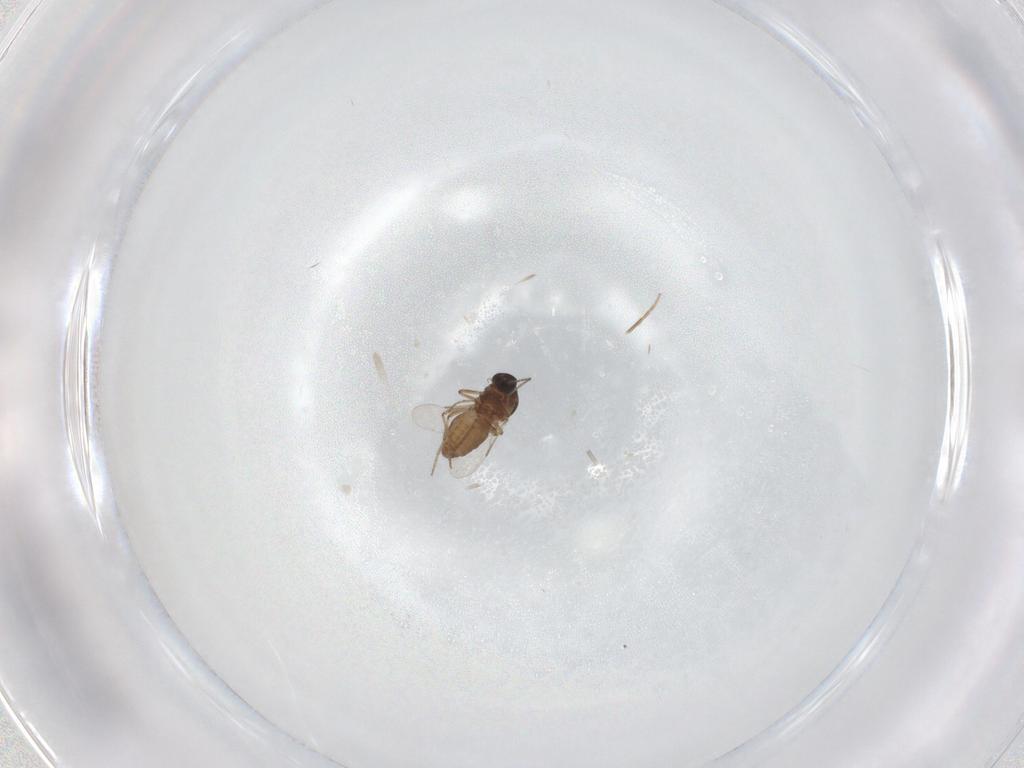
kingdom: Animalia
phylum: Arthropoda
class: Insecta
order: Diptera
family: Ceratopogonidae
